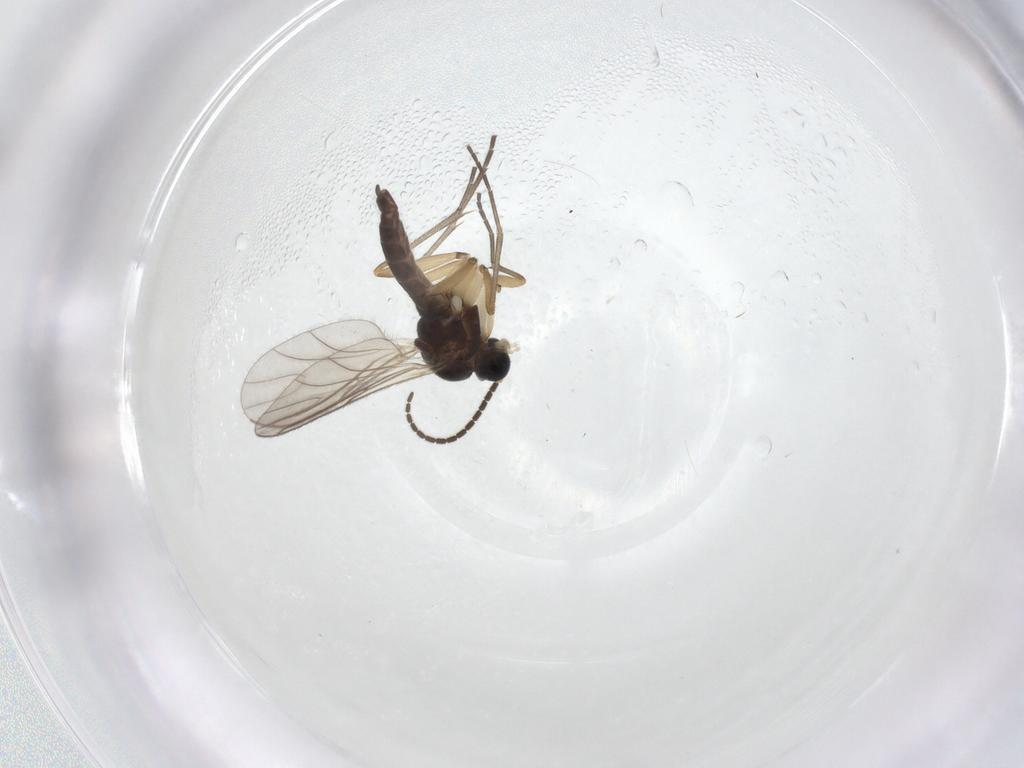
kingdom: Animalia
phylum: Arthropoda
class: Insecta
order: Diptera
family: Sciaridae
